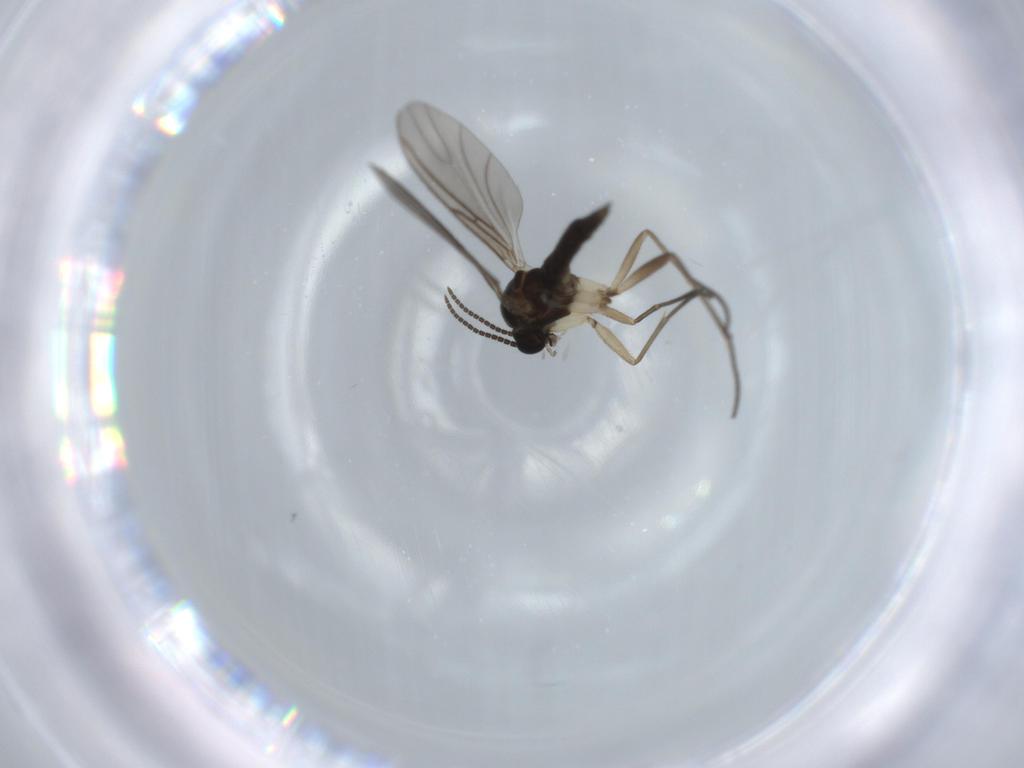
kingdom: Animalia
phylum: Arthropoda
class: Insecta
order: Diptera
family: Sciaridae
